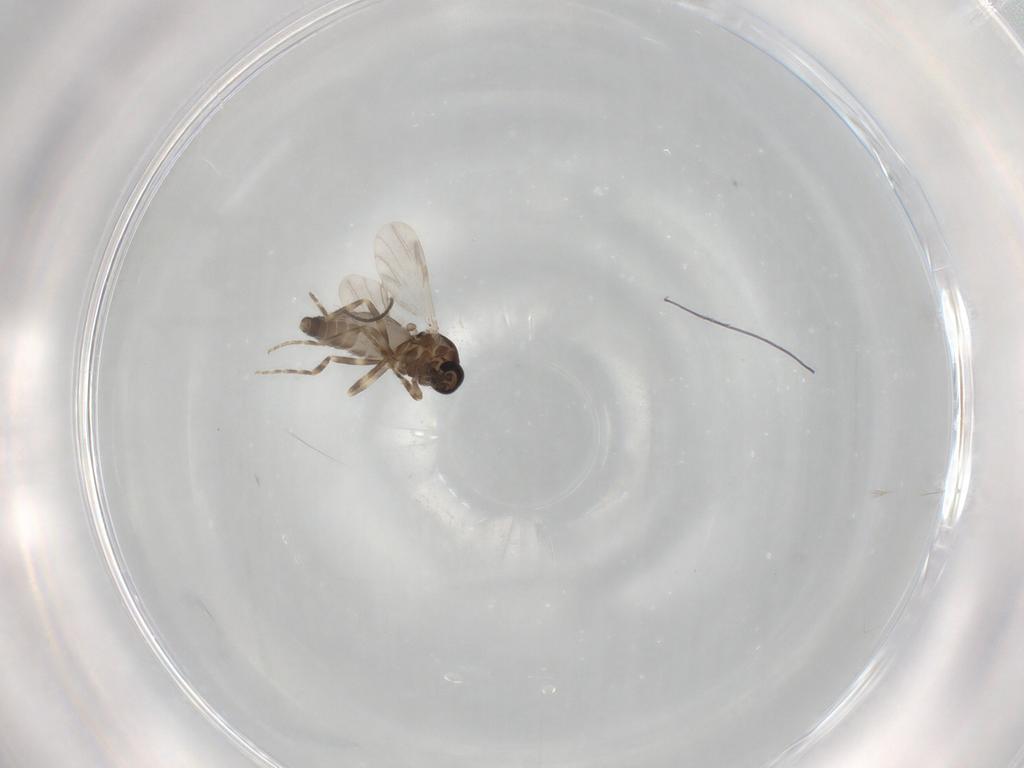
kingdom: Animalia
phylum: Arthropoda
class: Insecta
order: Diptera
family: Ceratopogonidae
